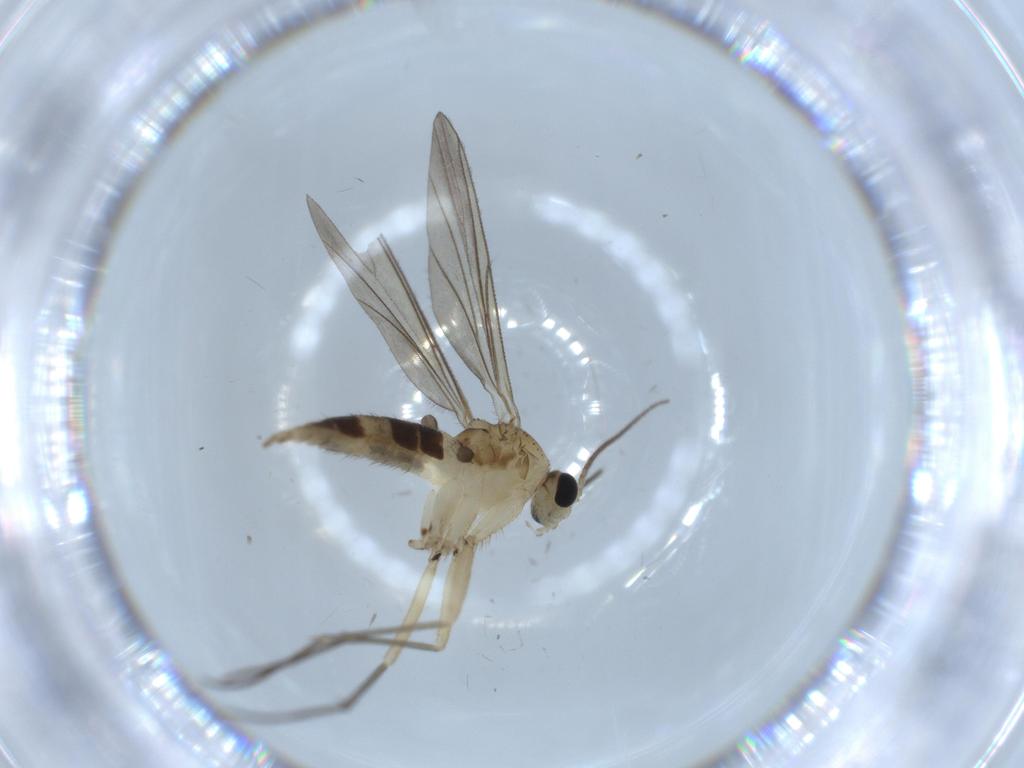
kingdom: Animalia
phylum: Arthropoda
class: Insecta
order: Diptera
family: Sciaridae
